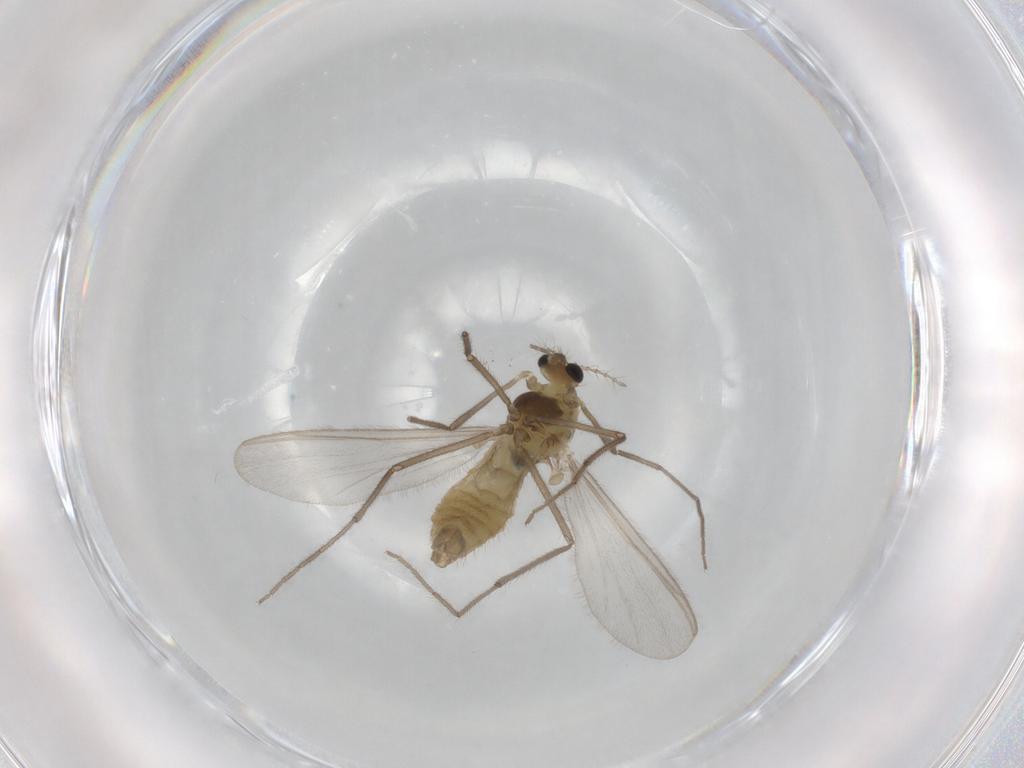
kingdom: Animalia
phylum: Arthropoda
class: Insecta
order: Diptera
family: Chironomidae
